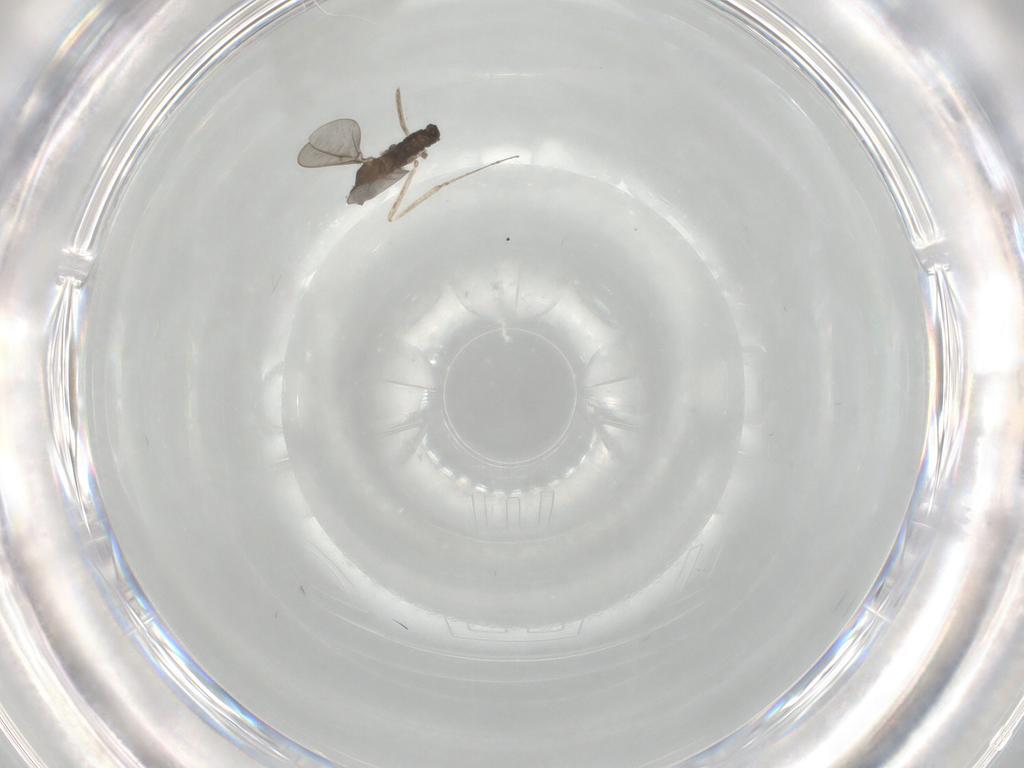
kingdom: Animalia
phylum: Arthropoda
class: Insecta
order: Diptera
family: Cecidomyiidae
